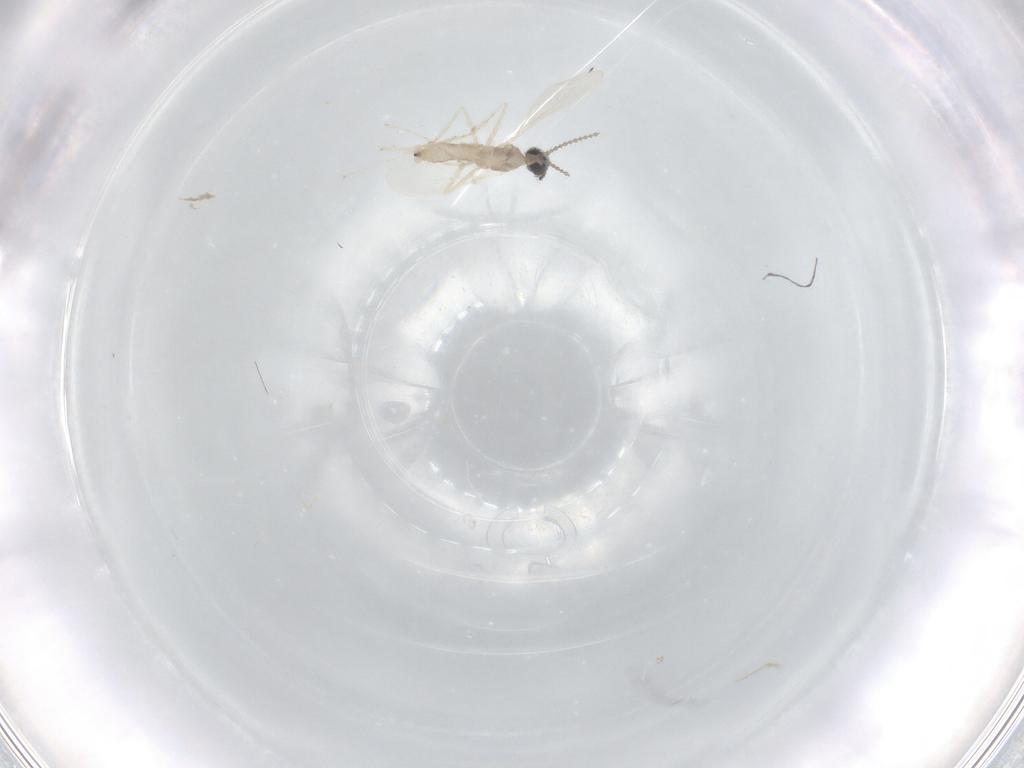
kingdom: Animalia
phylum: Arthropoda
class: Insecta
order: Diptera
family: Cecidomyiidae
